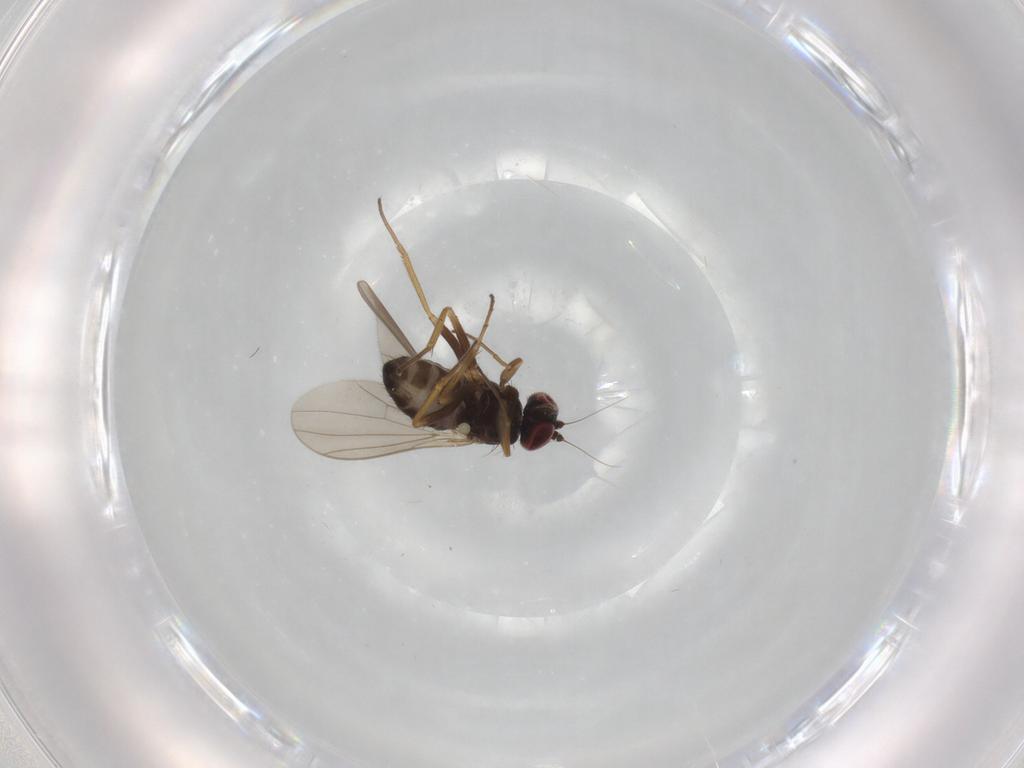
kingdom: Animalia
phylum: Arthropoda
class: Insecta
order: Diptera
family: Dolichopodidae
